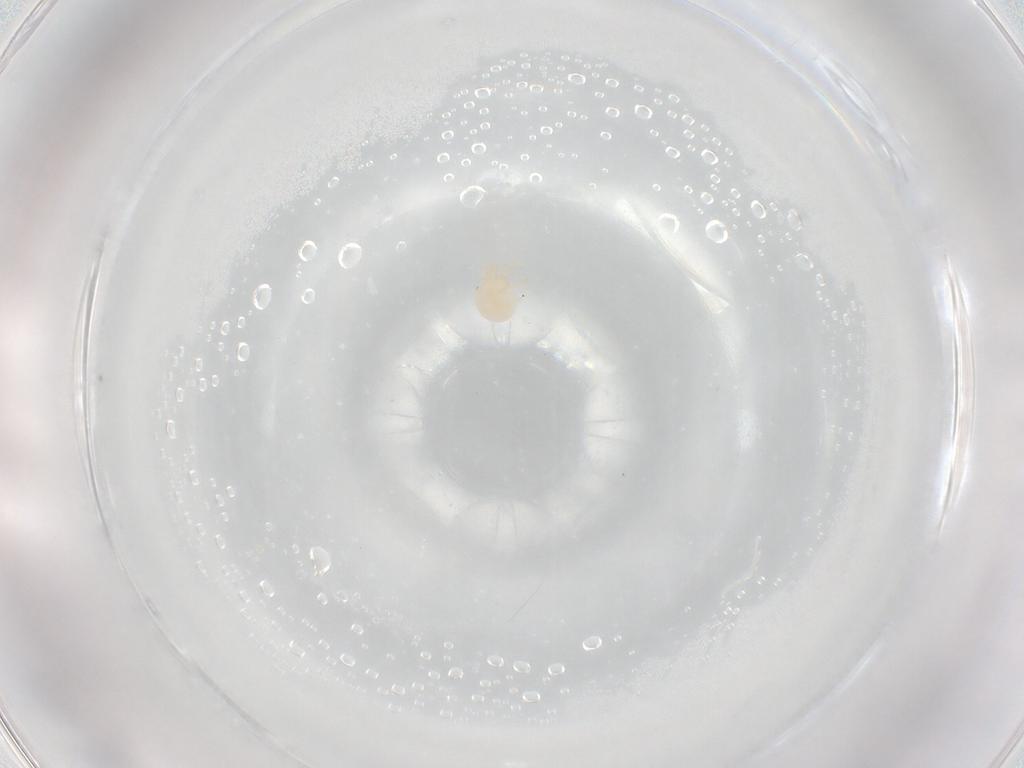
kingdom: Animalia
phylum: Arthropoda
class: Arachnida
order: Trombidiformes
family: Sperchontidae
